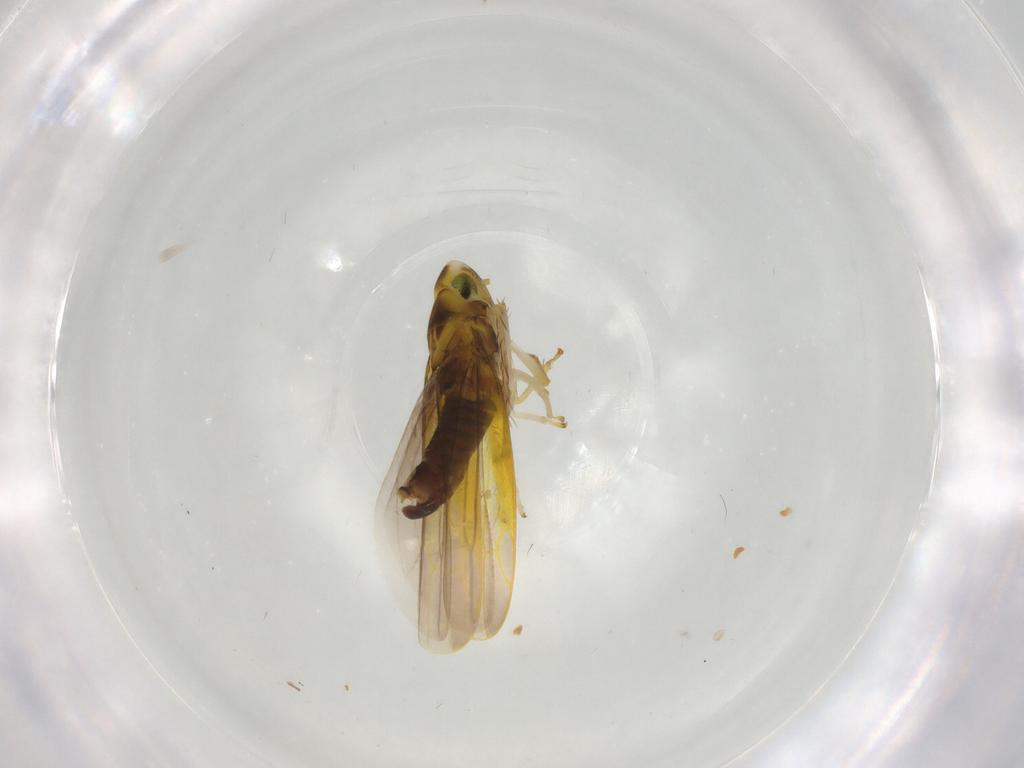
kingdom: Animalia
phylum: Arthropoda
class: Insecta
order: Hemiptera
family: Cicadellidae
